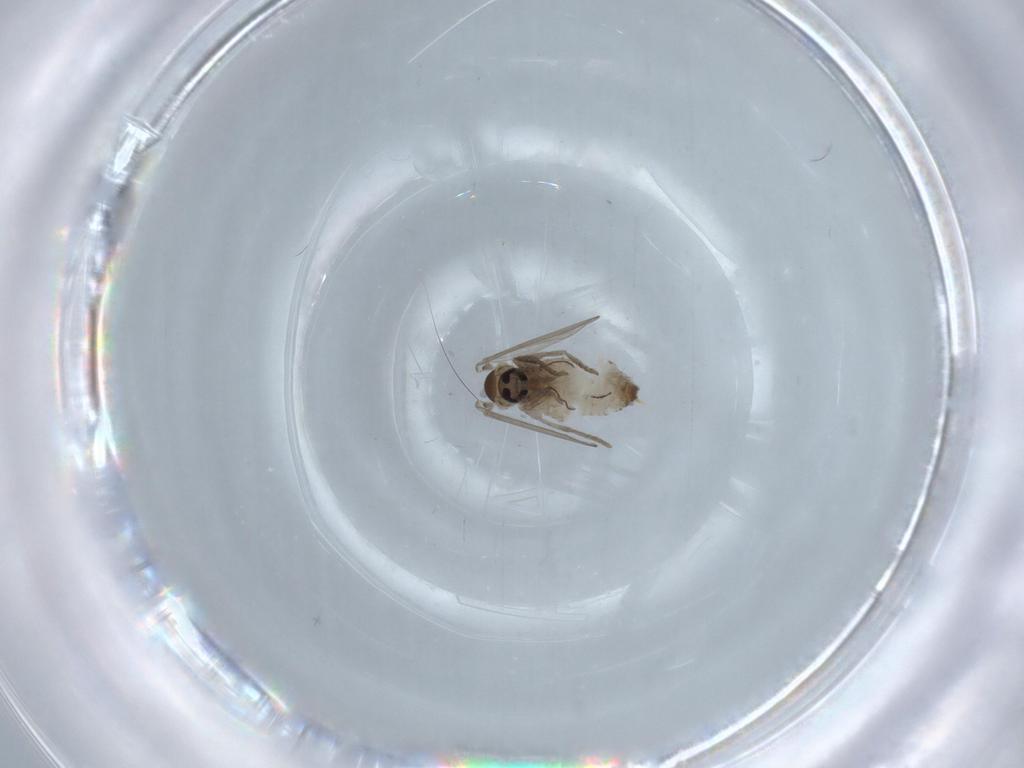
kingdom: Animalia
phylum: Arthropoda
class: Insecta
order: Diptera
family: Psychodidae
